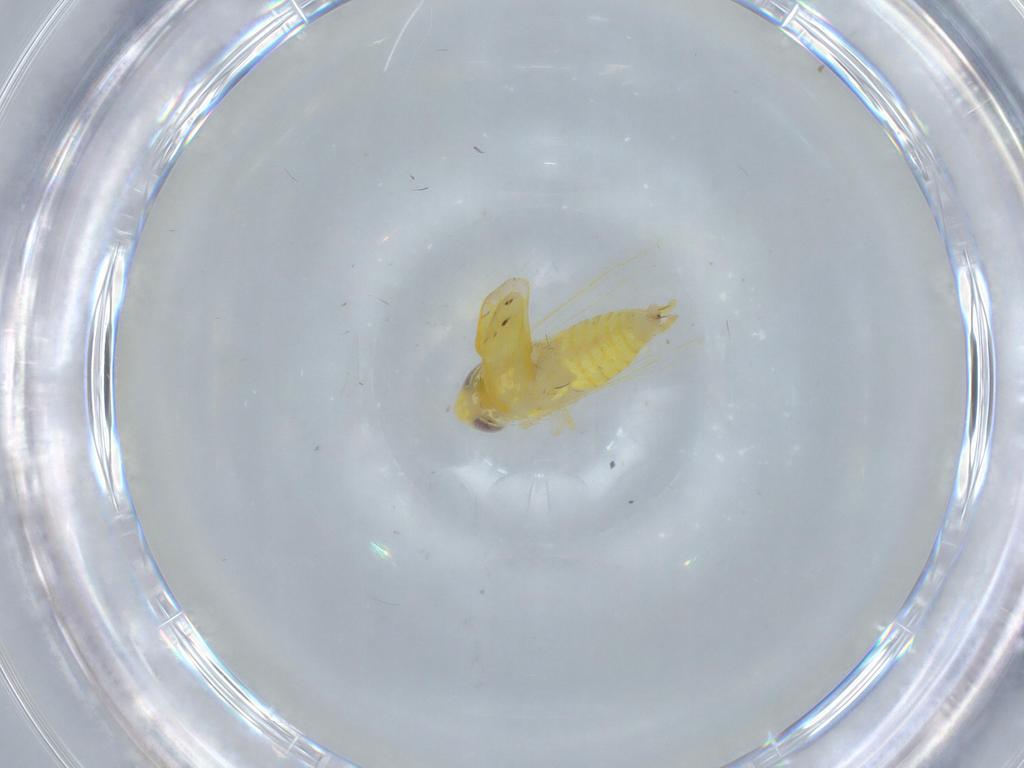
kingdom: Animalia
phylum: Arthropoda
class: Insecta
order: Hemiptera
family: Cicadellidae
